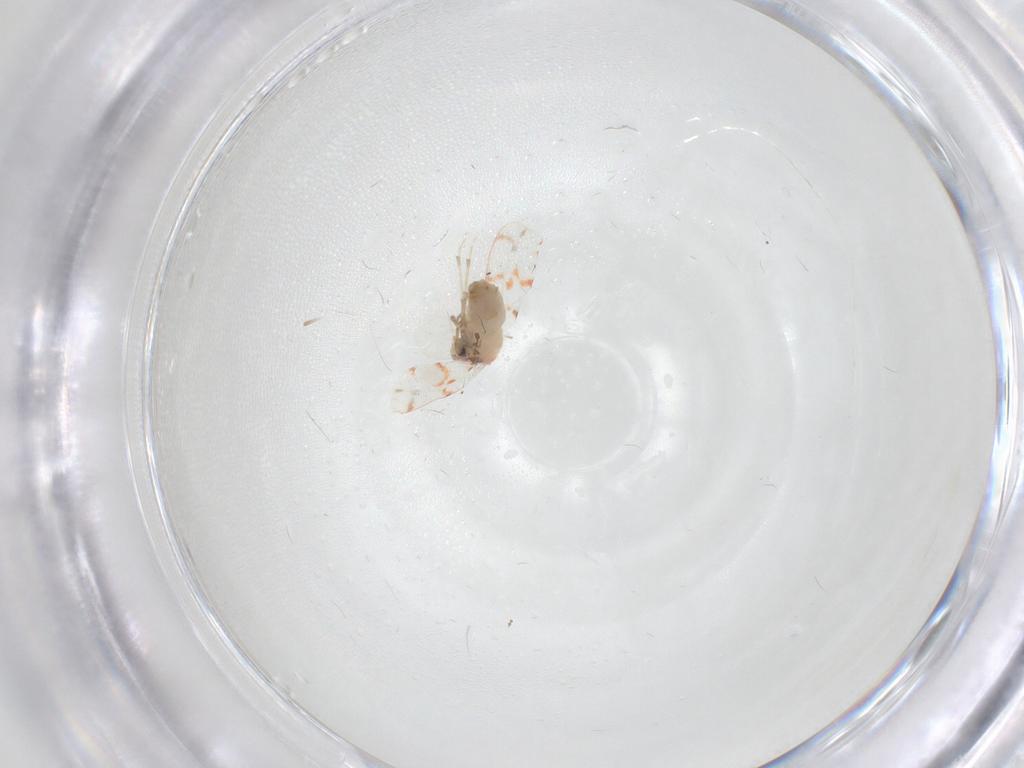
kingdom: Animalia
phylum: Arthropoda
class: Insecta
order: Hemiptera
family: Aleyrodidae
